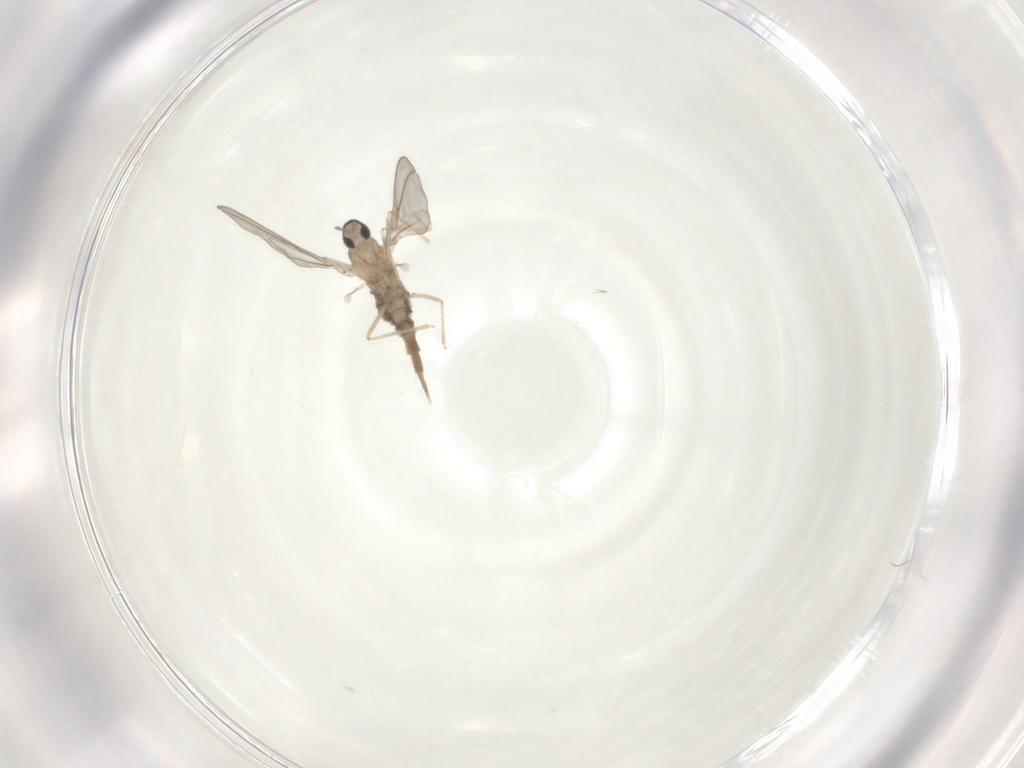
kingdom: Animalia
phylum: Arthropoda
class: Insecta
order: Diptera
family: Cecidomyiidae
